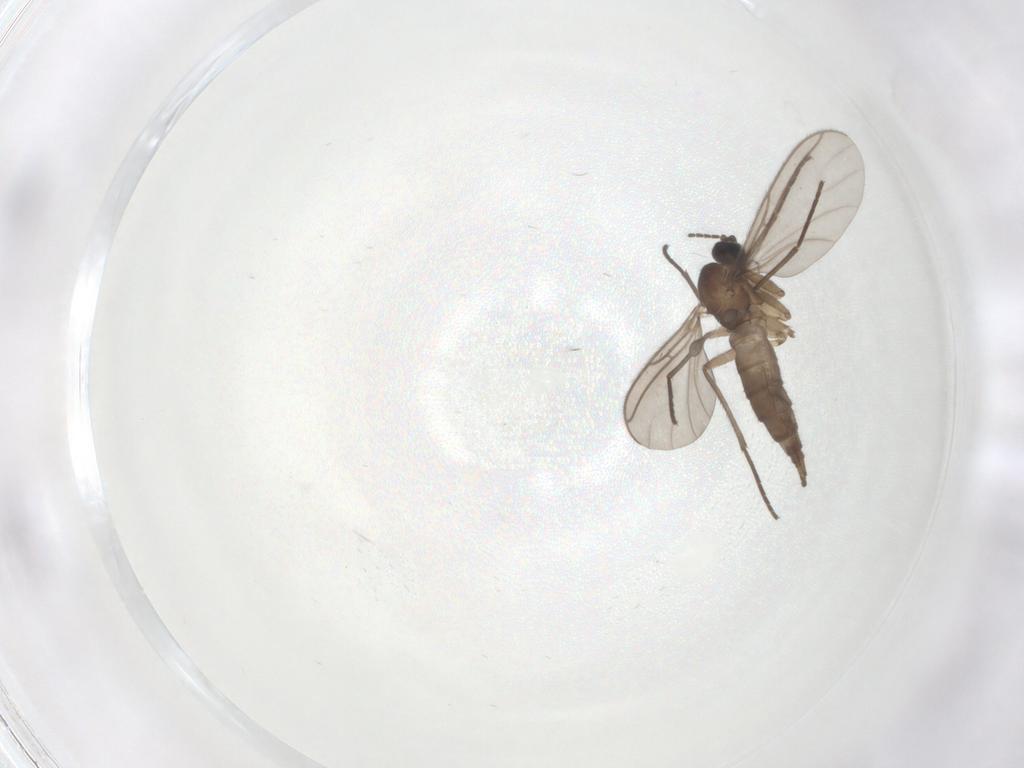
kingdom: Animalia
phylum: Arthropoda
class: Insecta
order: Diptera
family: Sciaridae
